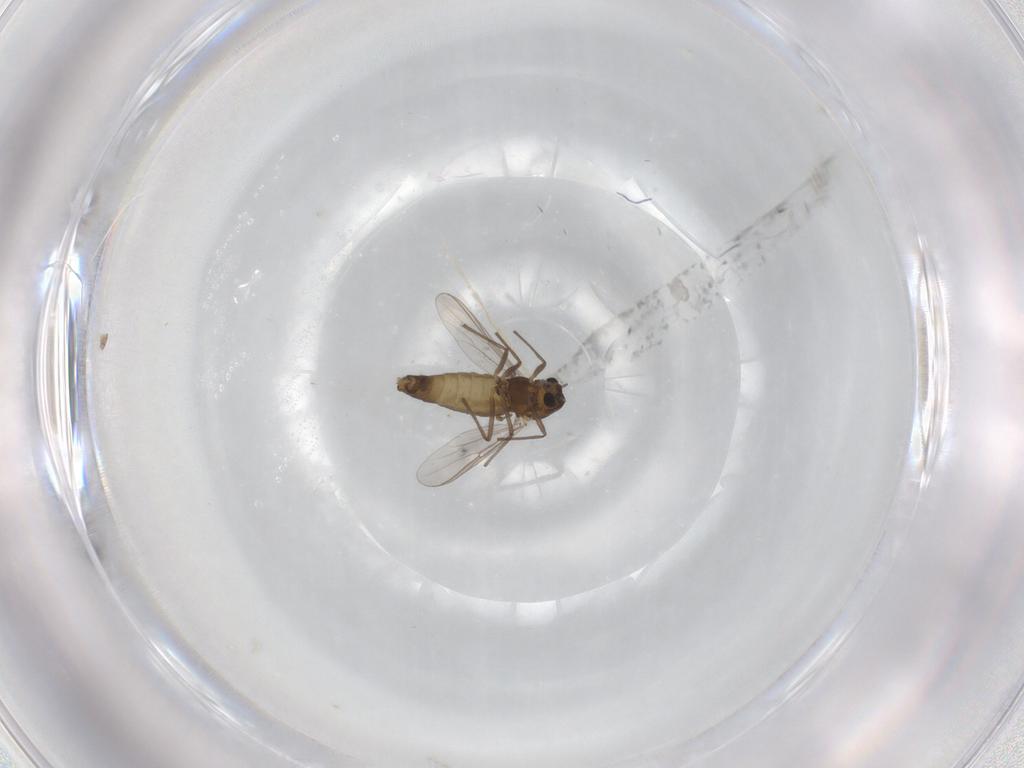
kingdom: Animalia
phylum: Arthropoda
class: Insecta
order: Diptera
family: Chironomidae
